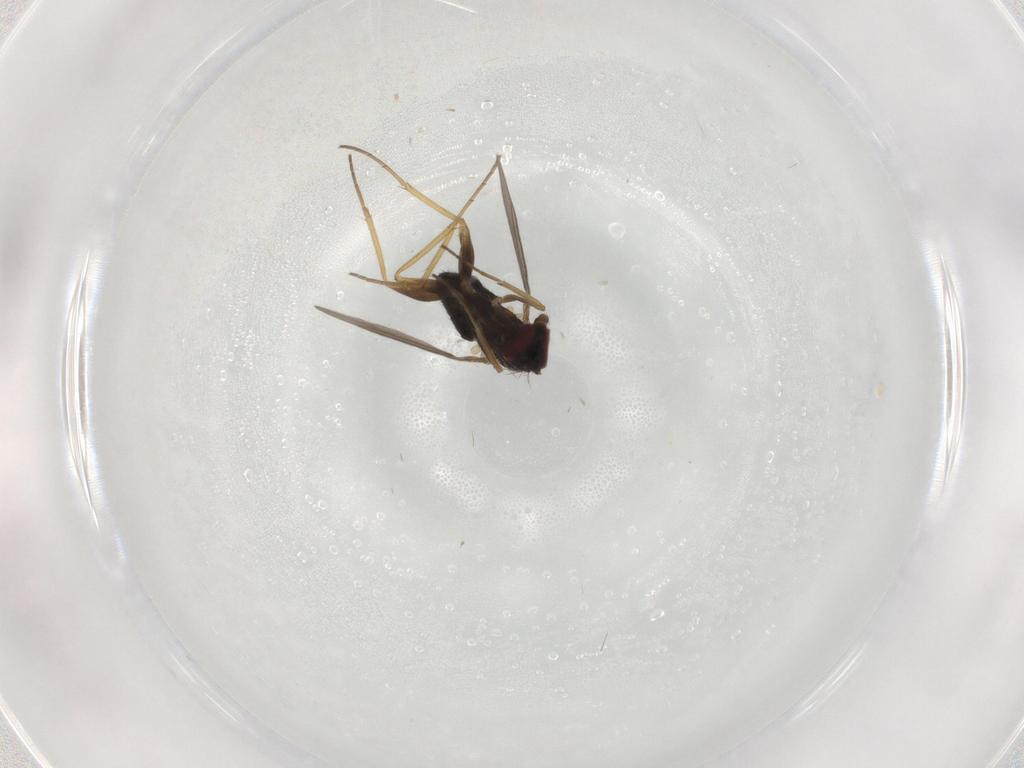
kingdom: Animalia
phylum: Arthropoda
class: Insecta
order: Diptera
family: Dolichopodidae
